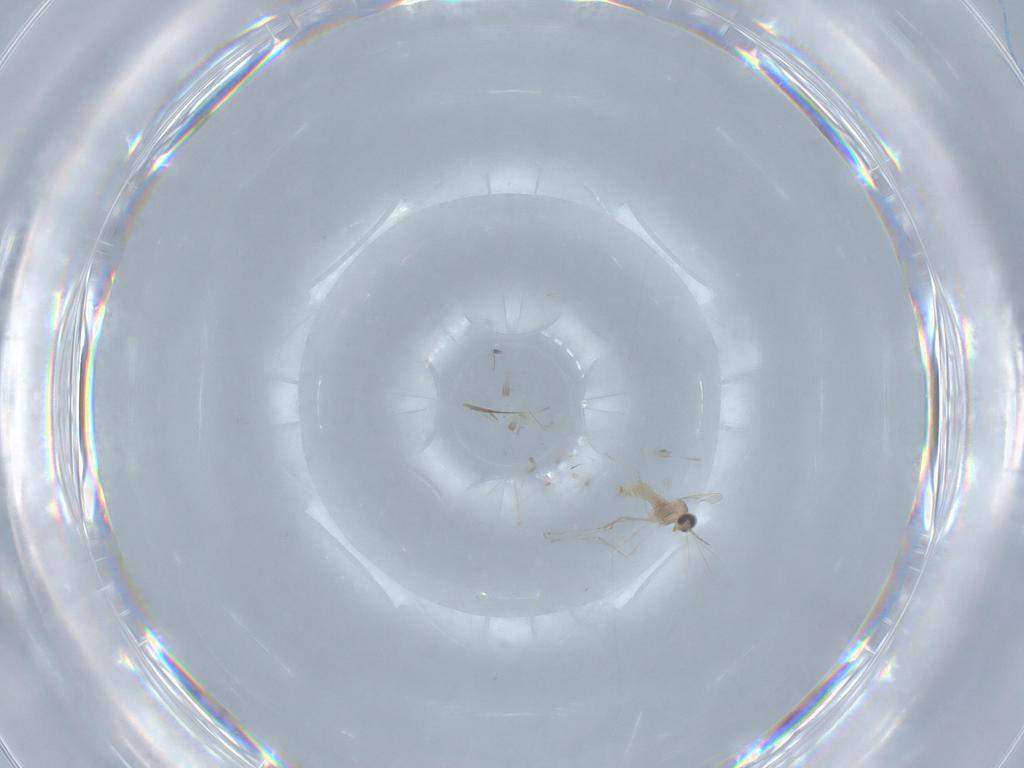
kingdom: Animalia
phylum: Arthropoda
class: Insecta
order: Diptera
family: Cecidomyiidae
